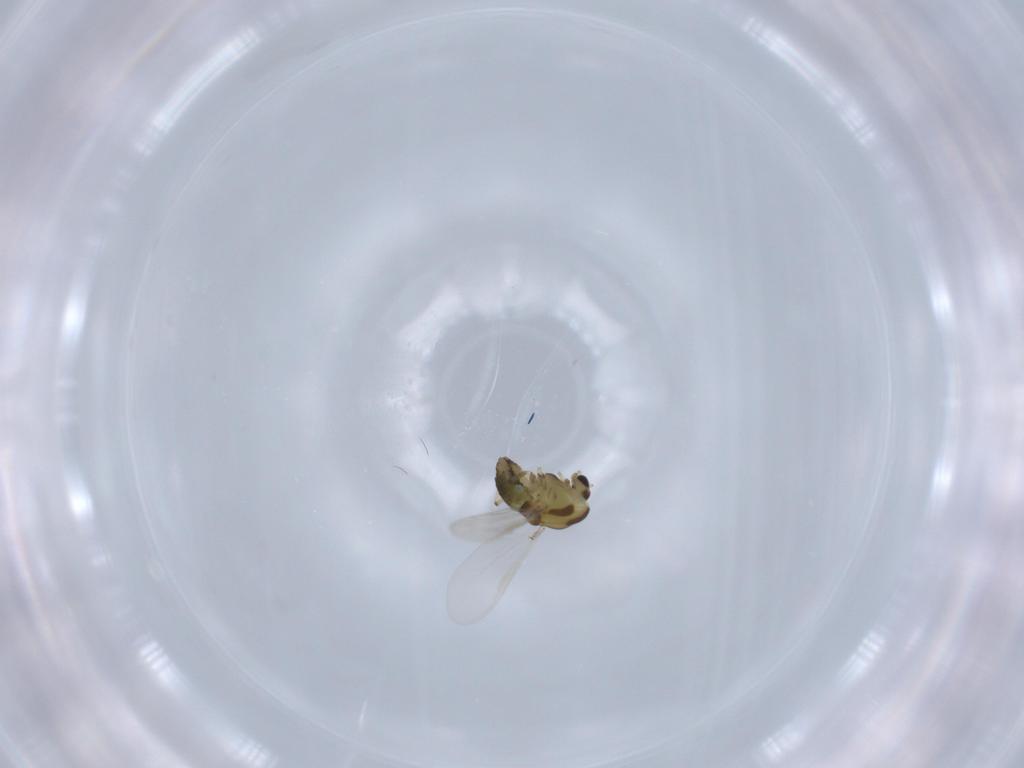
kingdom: Animalia
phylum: Arthropoda
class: Insecta
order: Diptera
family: Chironomidae
